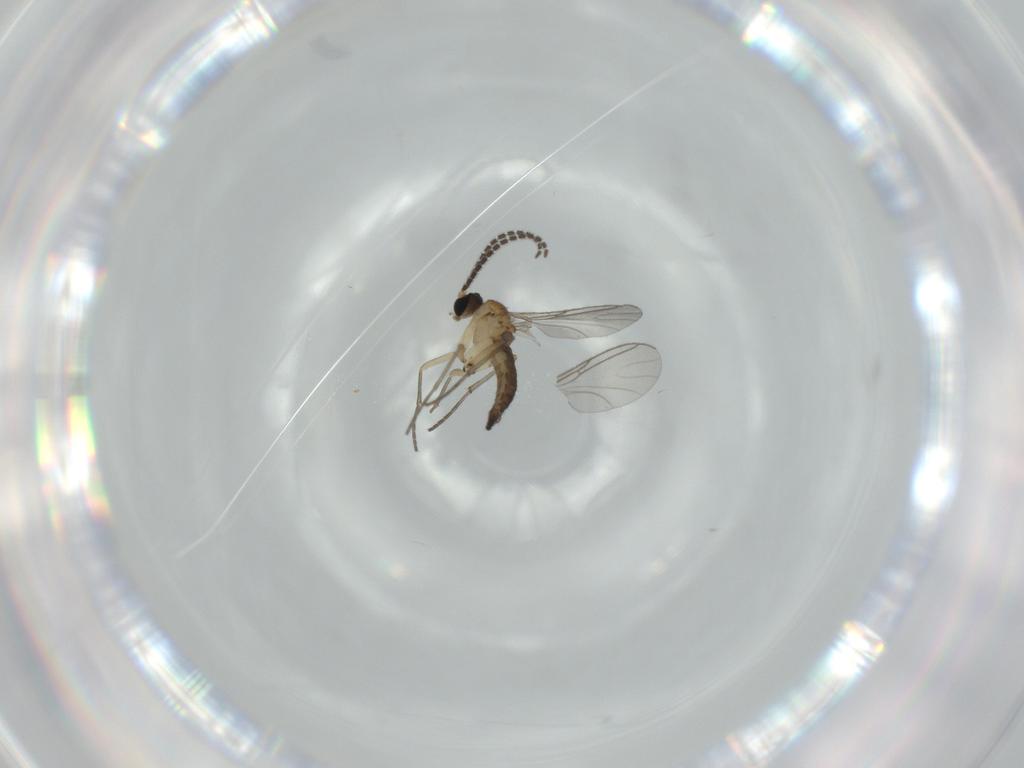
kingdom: Animalia
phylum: Arthropoda
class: Insecta
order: Diptera
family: Sciaridae
